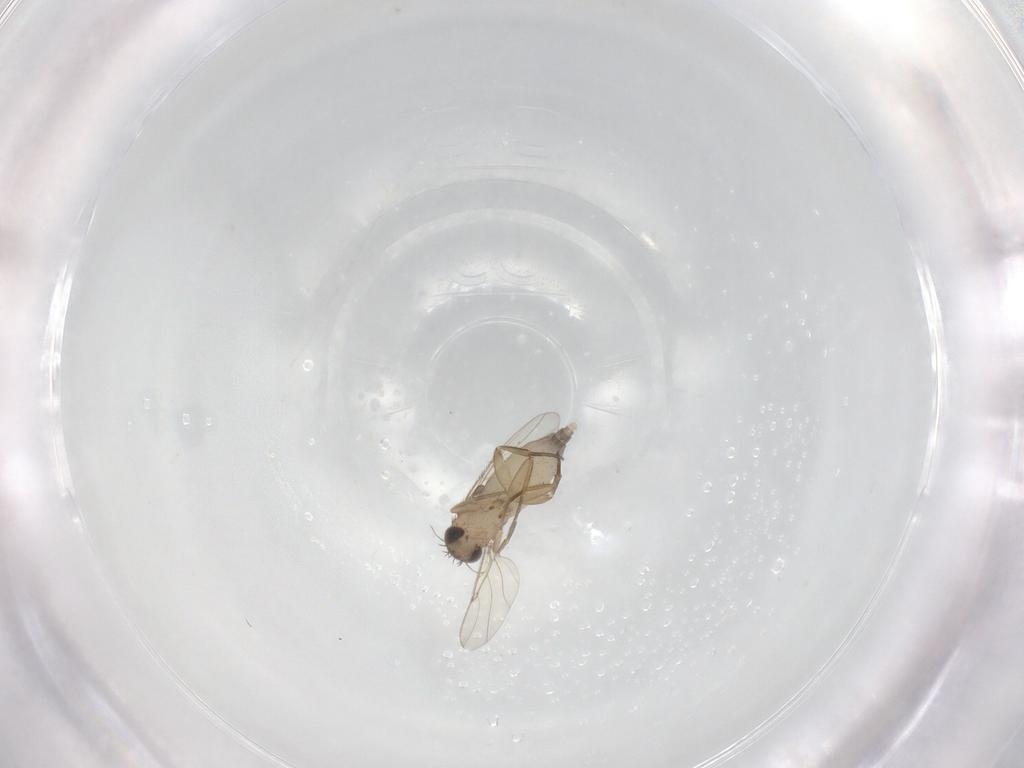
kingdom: Animalia
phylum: Arthropoda
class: Insecta
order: Diptera
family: Phoridae
